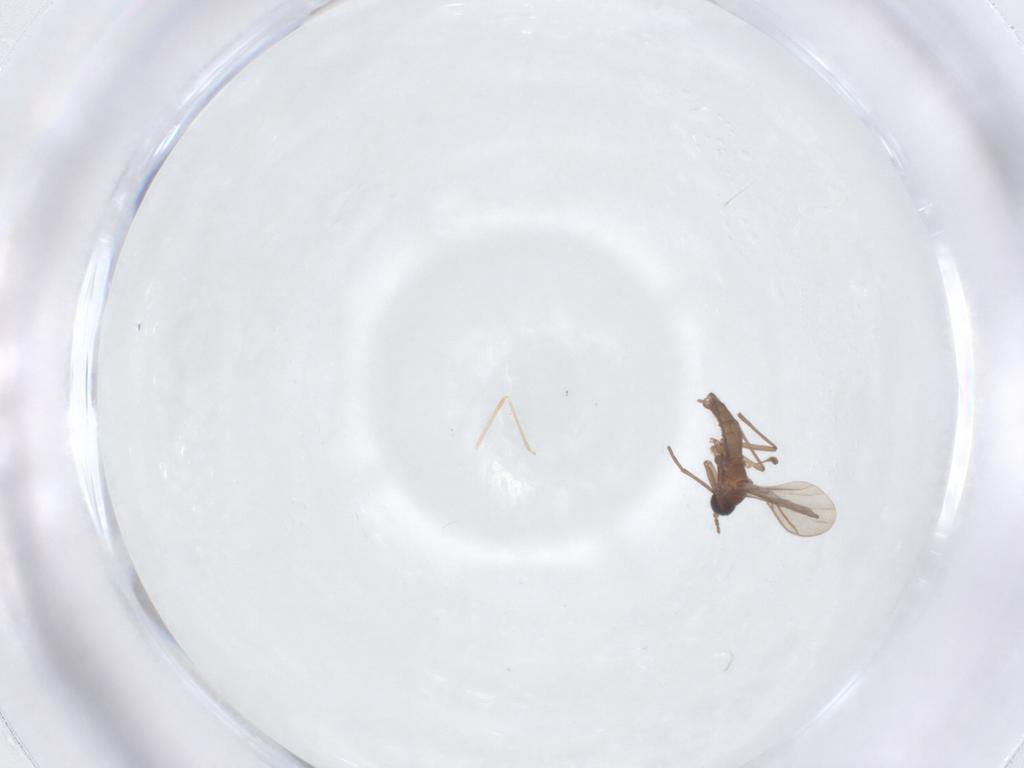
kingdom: Animalia
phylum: Arthropoda
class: Insecta
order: Diptera
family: Sciaridae
